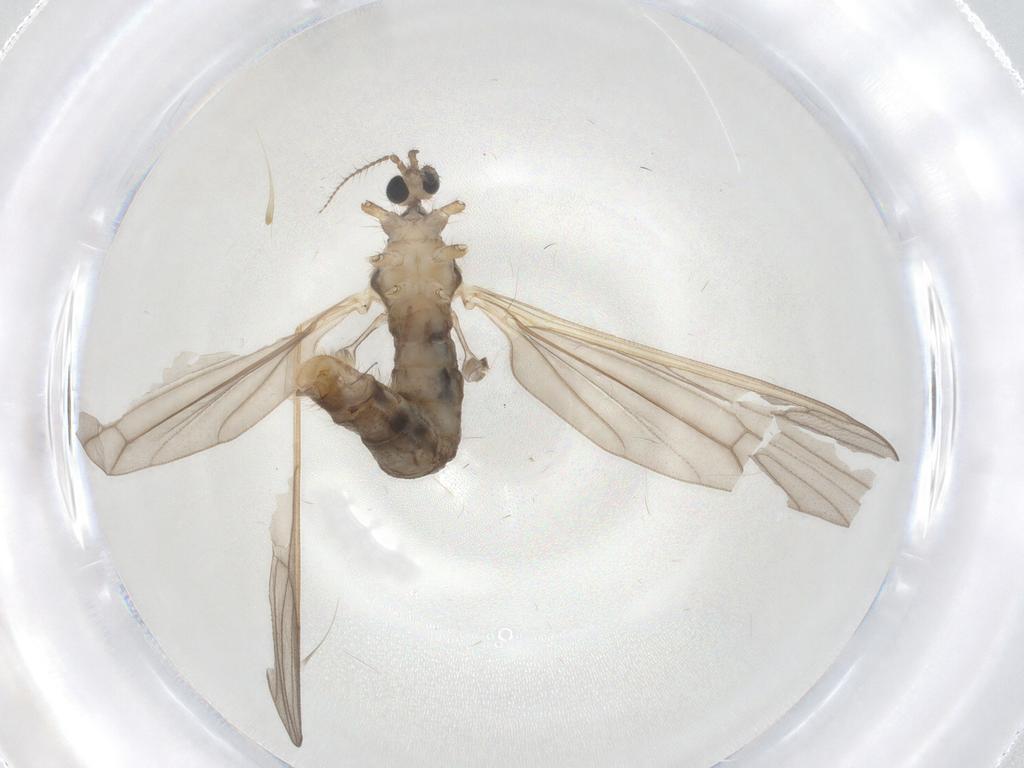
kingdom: Animalia
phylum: Arthropoda
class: Insecta
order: Diptera
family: Limoniidae
